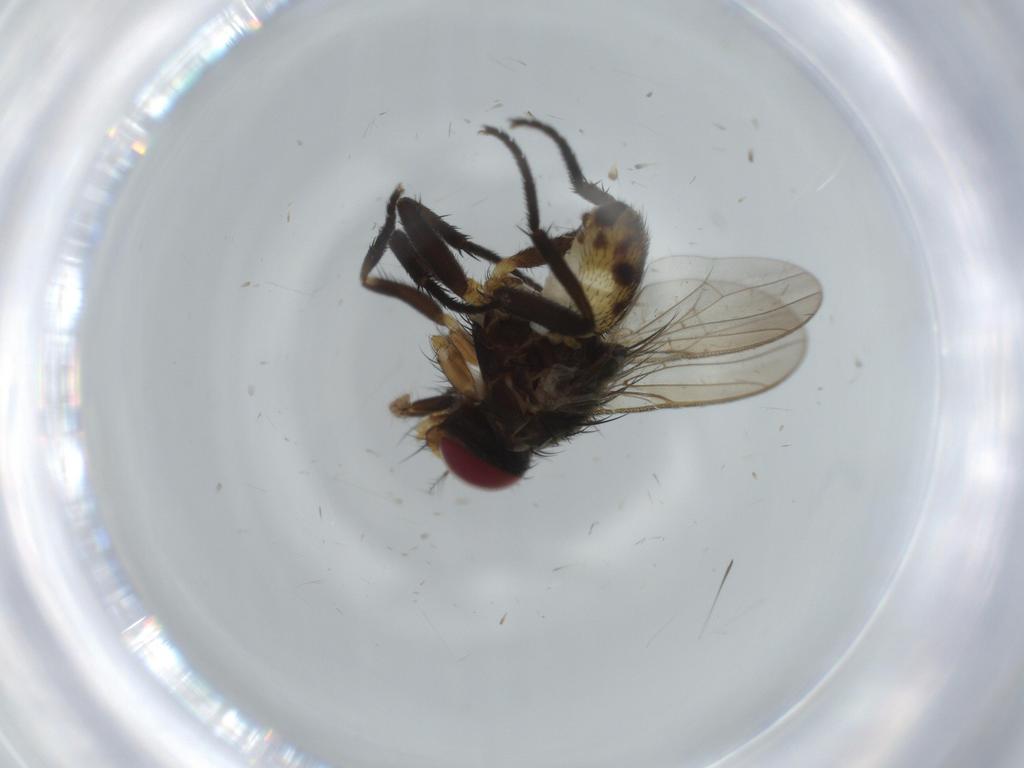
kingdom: Animalia
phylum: Arthropoda
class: Insecta
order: Diptera
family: Anthomyiidae
